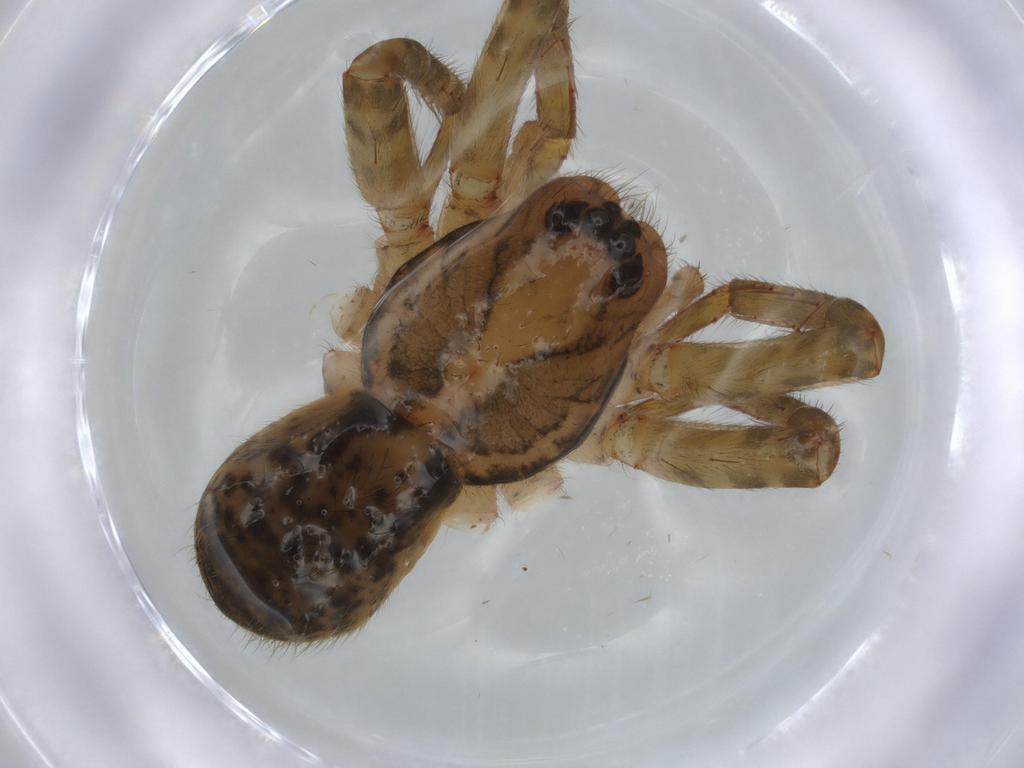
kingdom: Animalia
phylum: Arthropoda
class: Arachnida
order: Araneae
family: Ctenidae
